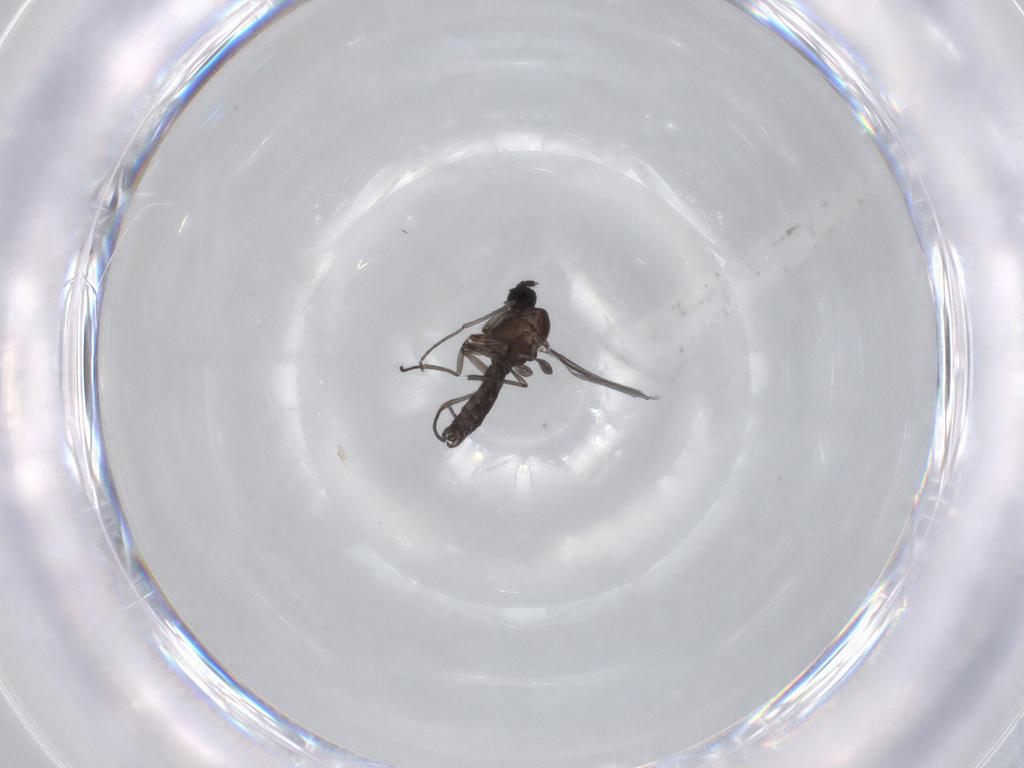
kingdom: Animalia
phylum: Arthropoda
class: Insecta
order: Diptera
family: Sciaridae
